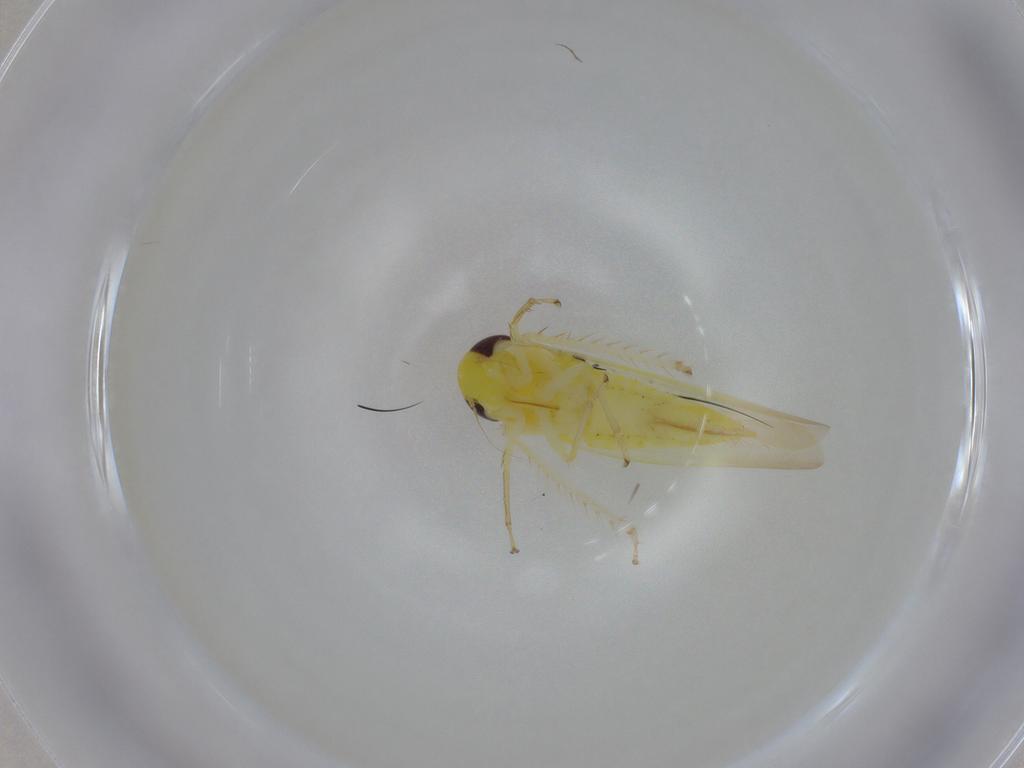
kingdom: Animalia
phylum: Arthropoda
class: Insecta
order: Hemiptera
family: Cicadellidae
